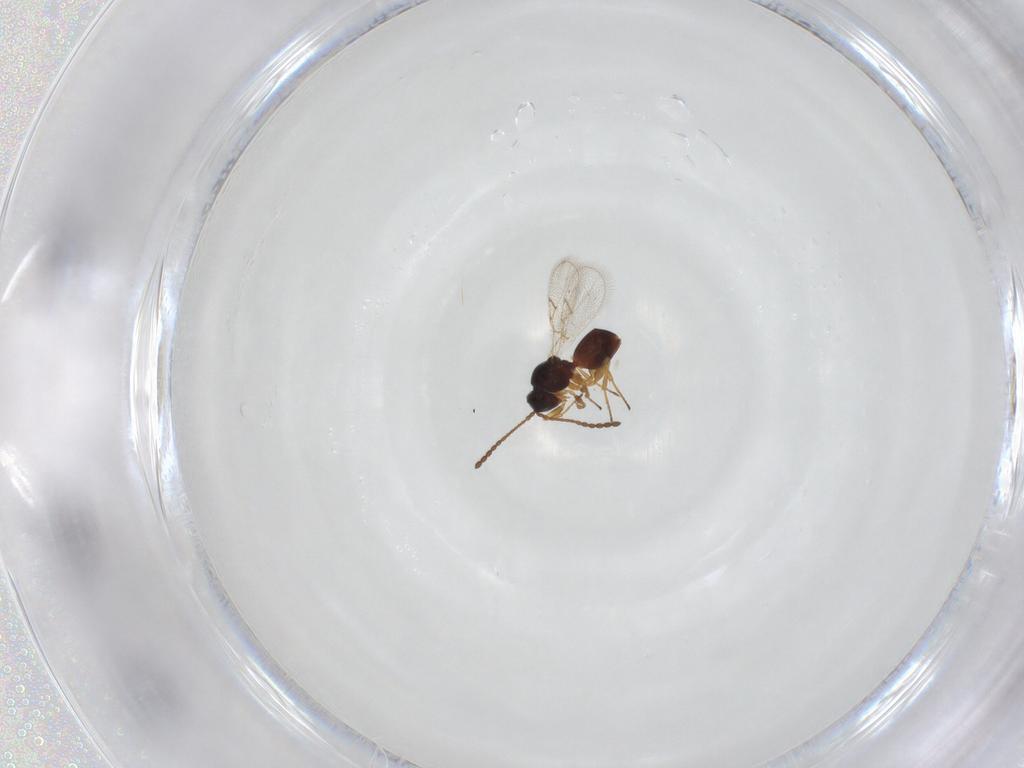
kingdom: Animalia
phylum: Arthropoda
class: Insecta
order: Hymenoptera
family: Figitidae
